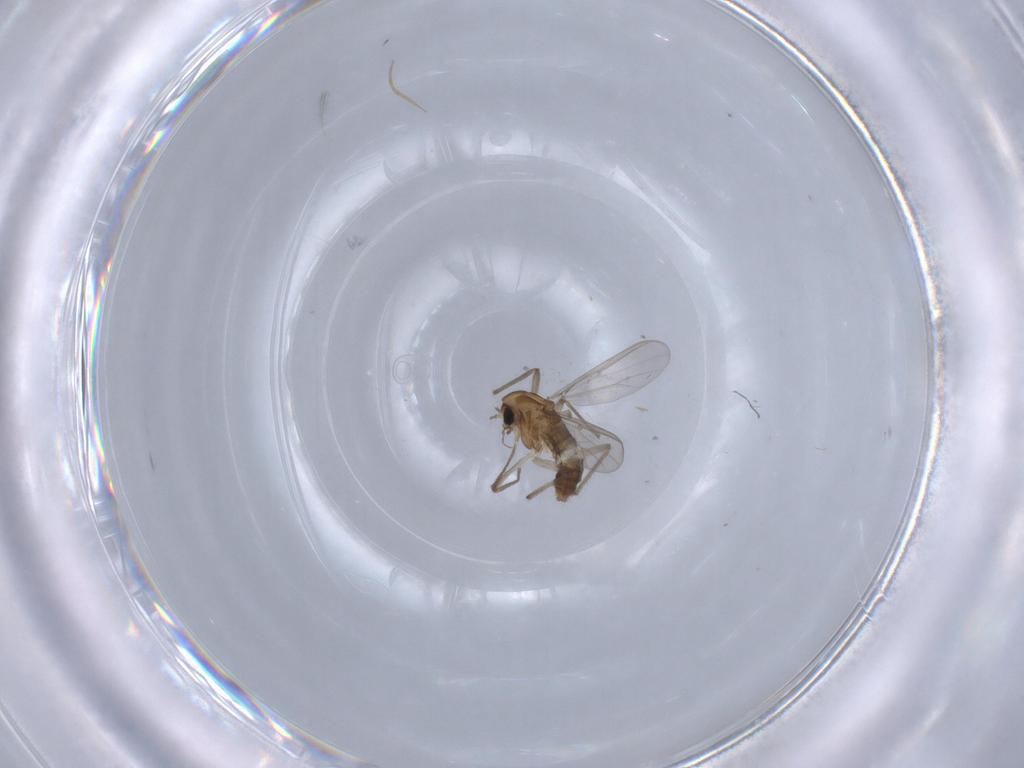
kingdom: Animalia
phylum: Arthropoda
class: Insecta
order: Diptera
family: Chironomidae
